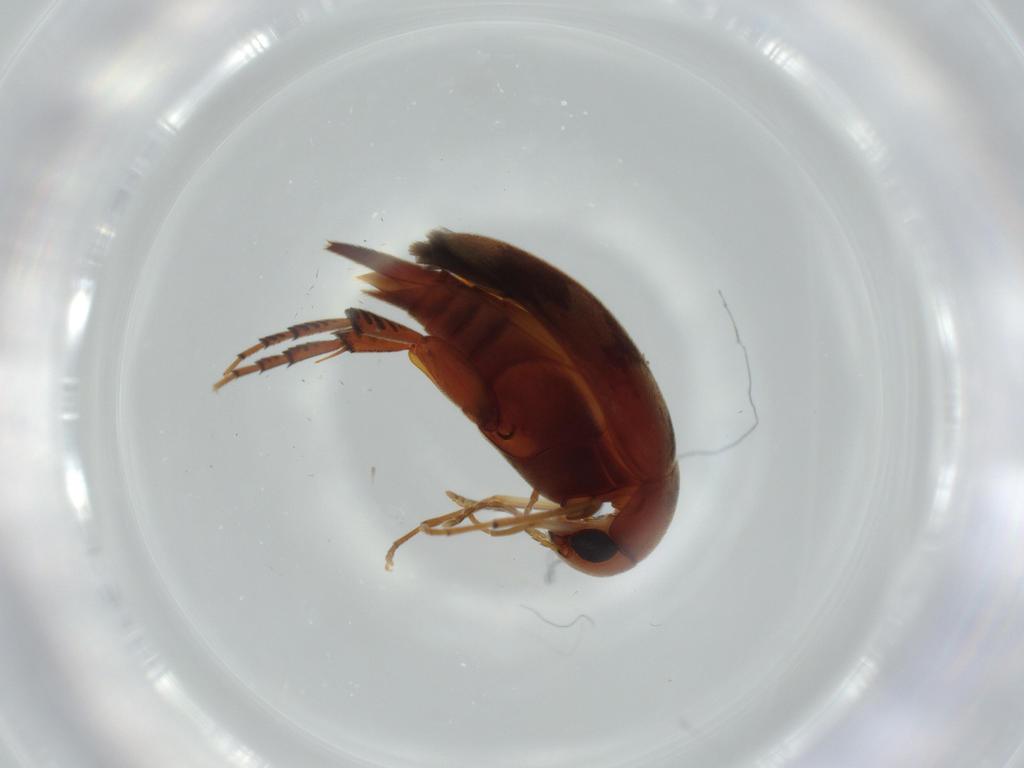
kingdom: Animalia
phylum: Arthropoda
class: Insecta
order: Coleoptera
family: Mordellidae
